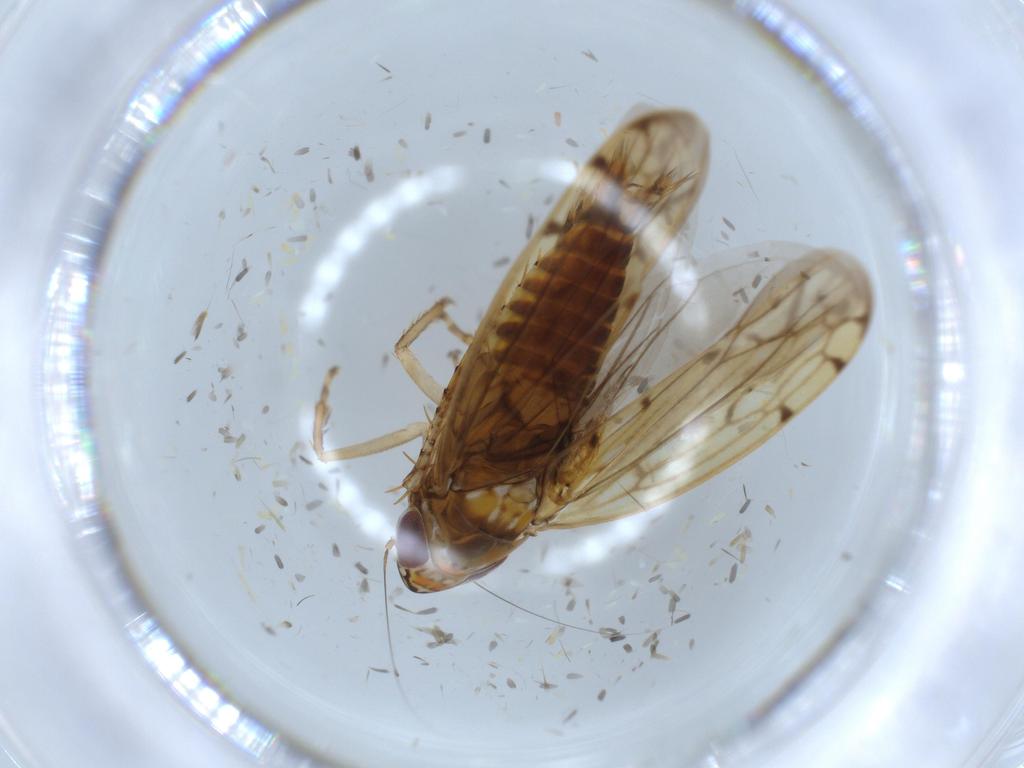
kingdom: Animalia
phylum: Arthropoda
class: Insecta
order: Hemiptera
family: Cicadellidae
